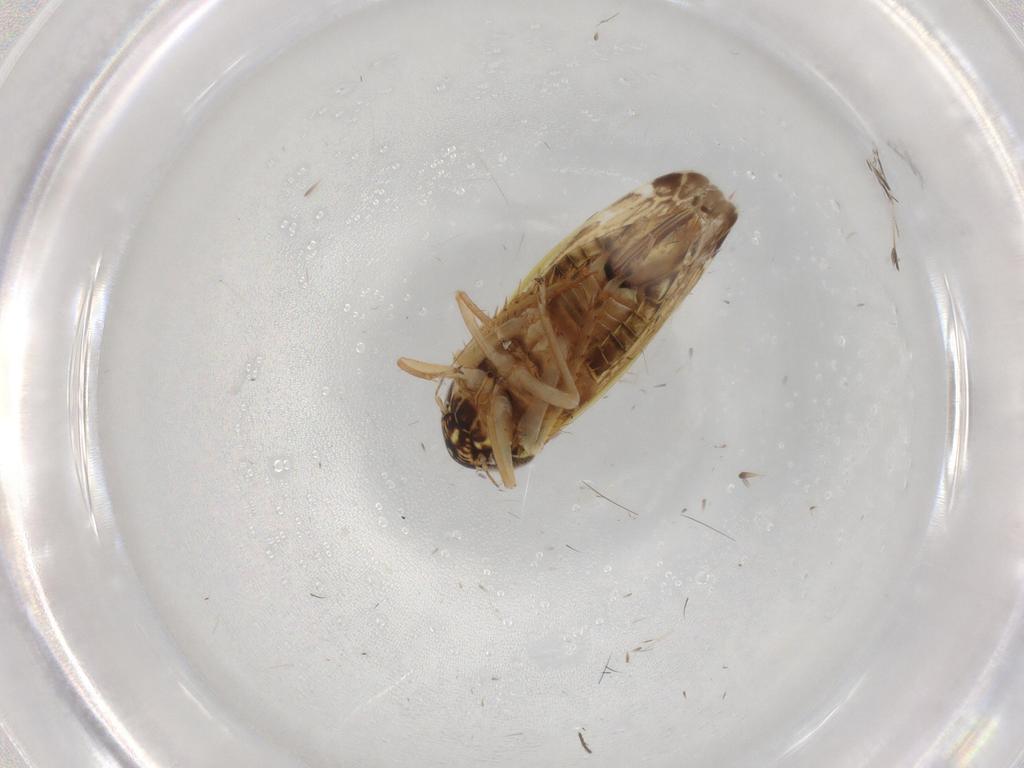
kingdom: Animalia
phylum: Arthropoda
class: Insecta
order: Hemiptera
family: Cicadellidae
